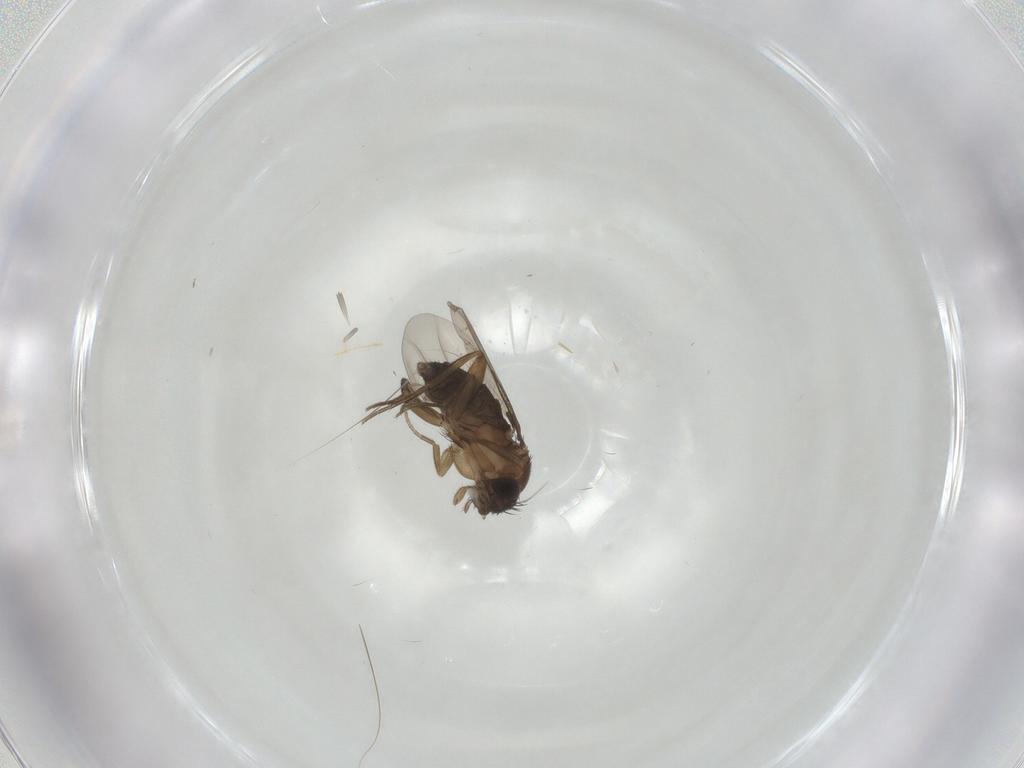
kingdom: Animalia
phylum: Arthropoda
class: Insecta
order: Diptera
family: Phoridae
